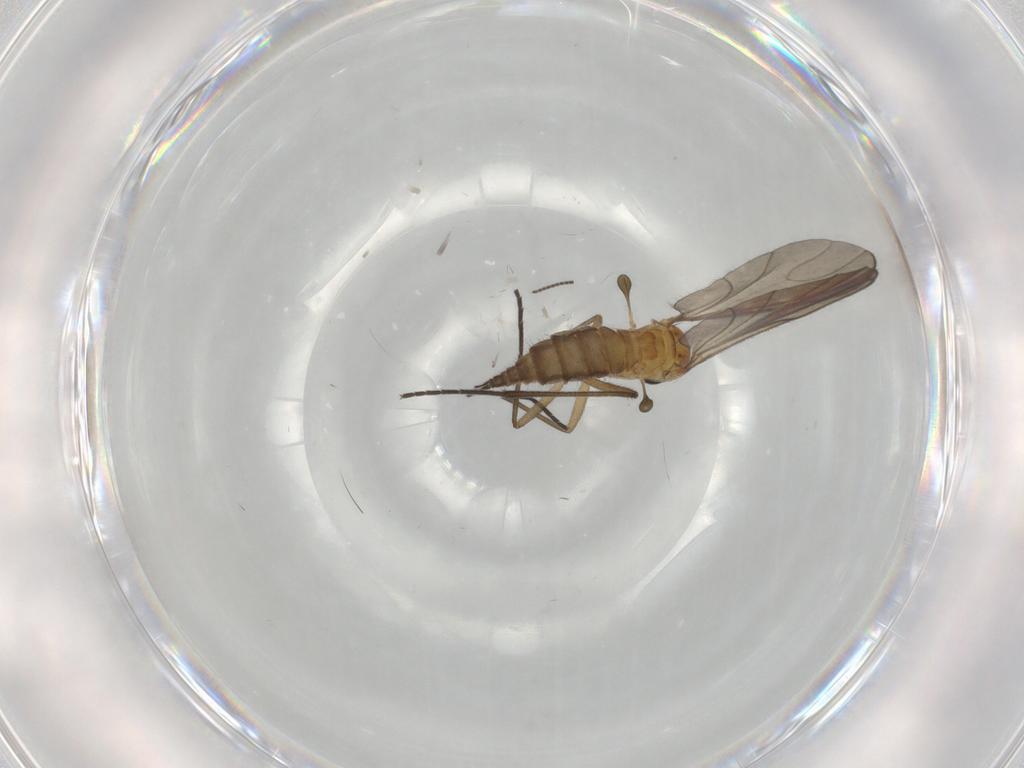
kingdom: Animalia
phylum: Arthropoda
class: Insecta
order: Diptera
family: Sciaridae
